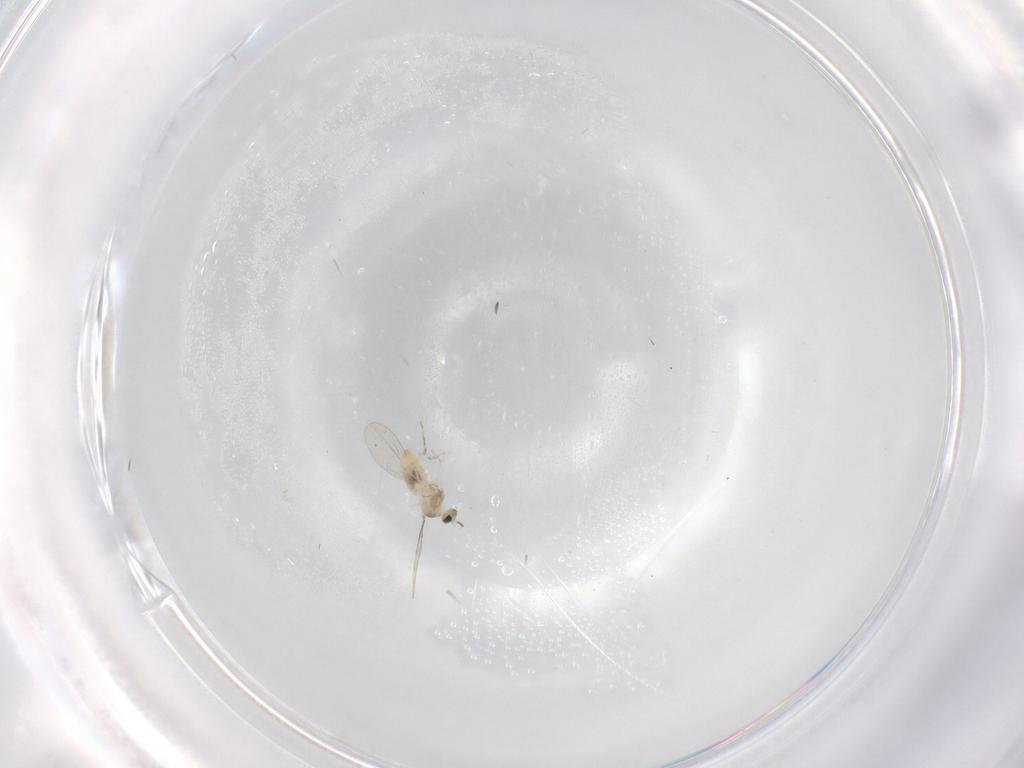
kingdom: Animalia
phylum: Arthropoda
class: Insecta
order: Diptera
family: Cecidomyiidae
